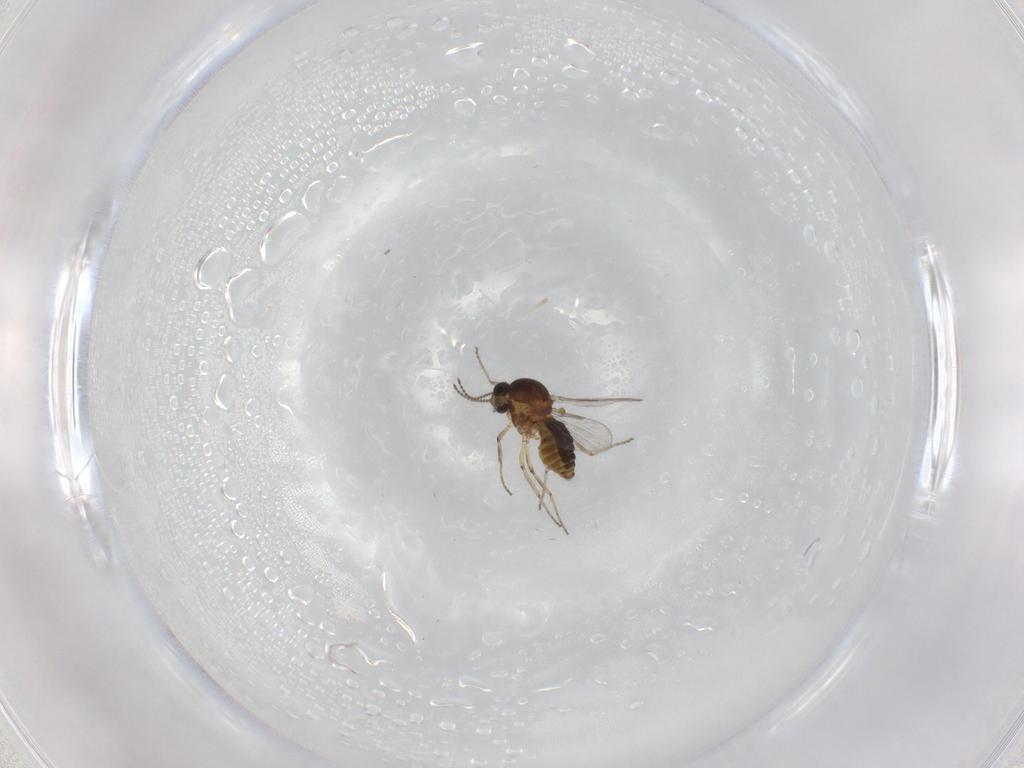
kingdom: Animalia
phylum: Arthropoda
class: Insecta
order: Diptera
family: Ceratopogonidae
